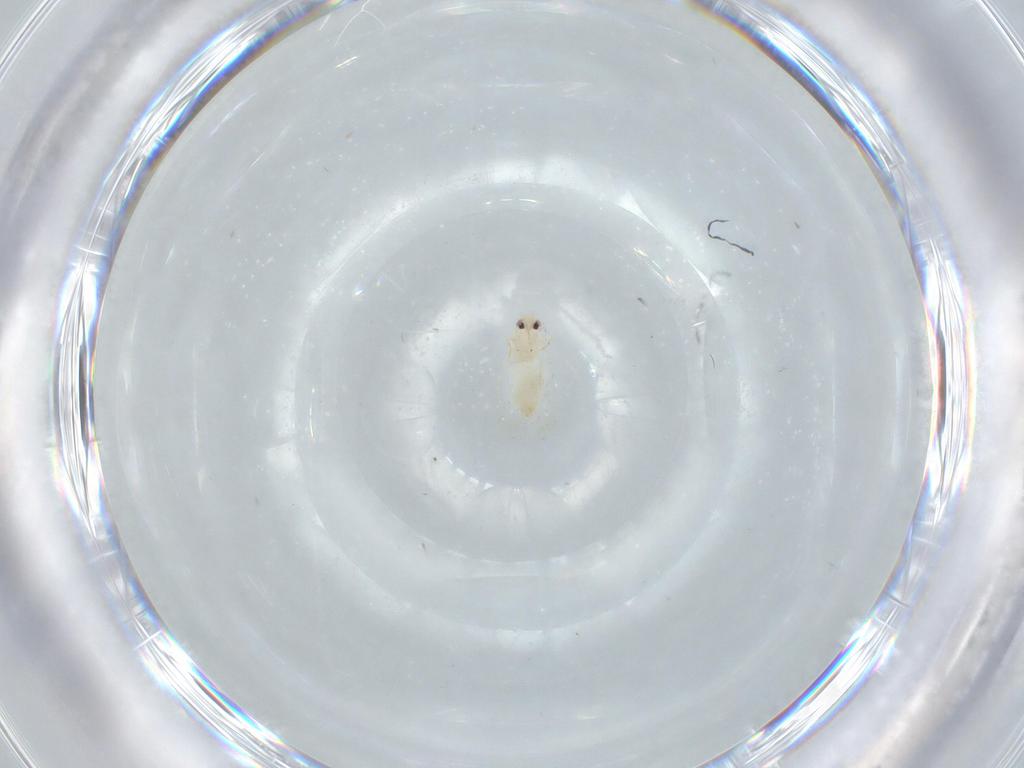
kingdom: Animalia
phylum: Arthropoda
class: Insecta
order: Hemiptera
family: Aleyrodidae
